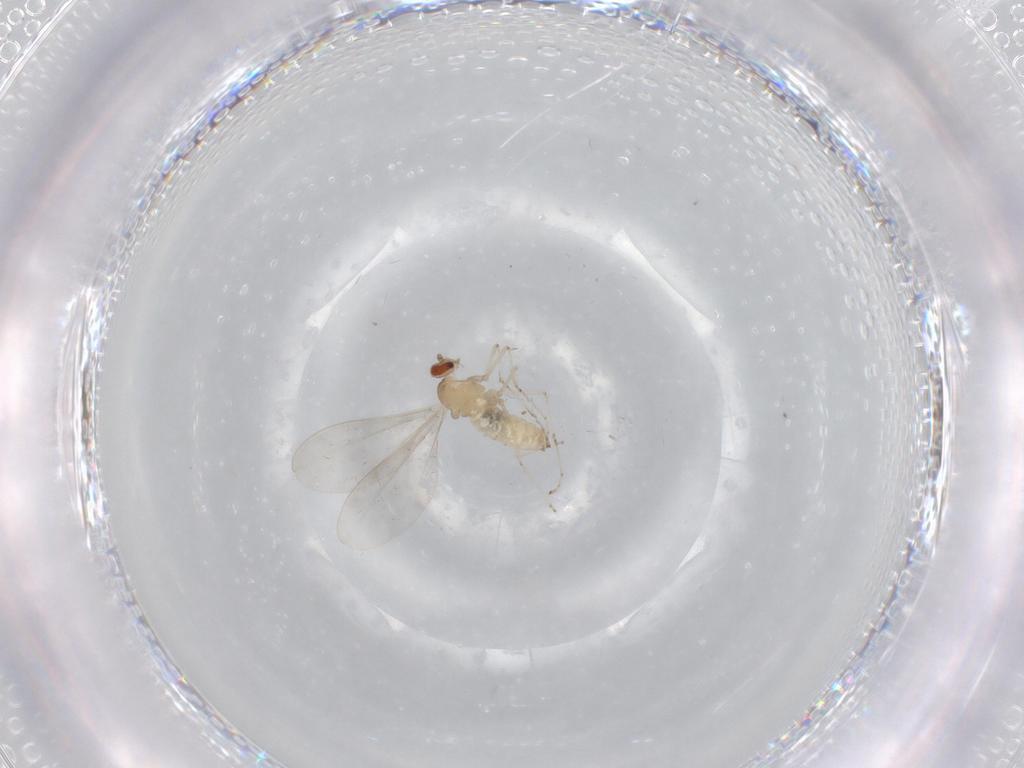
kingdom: Animalia
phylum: Arthropoda
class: Insecta
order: Diptera
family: Cecidomyiidae
